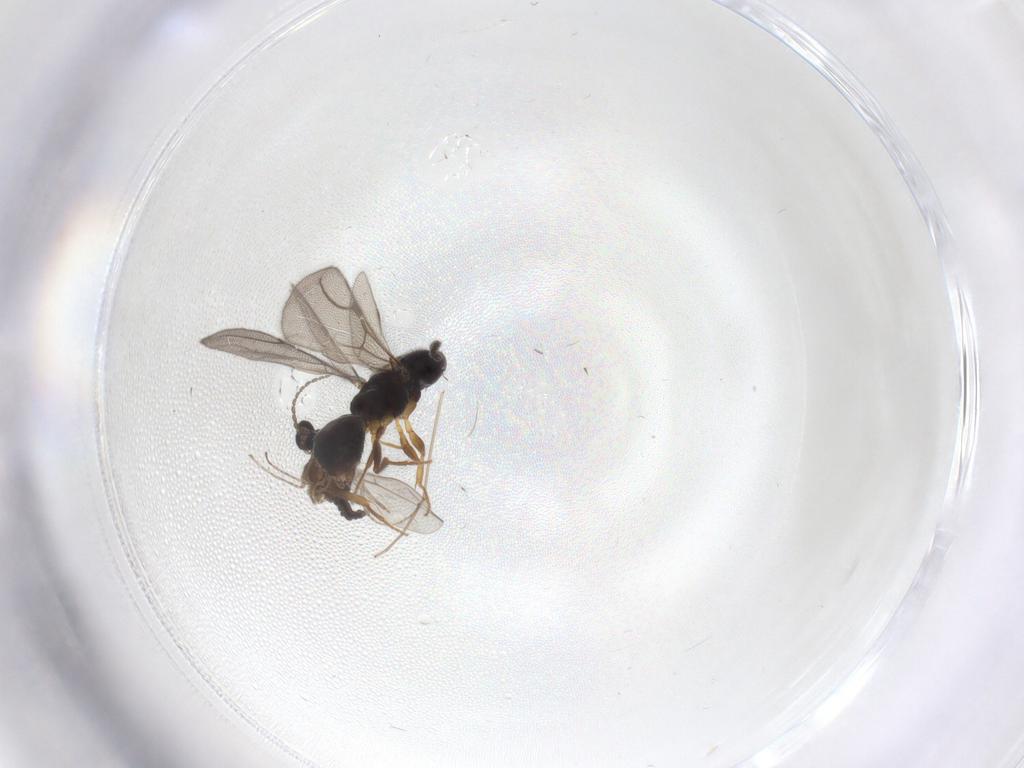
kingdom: Animalia
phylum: Arthropoda
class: Insecta
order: Diptera
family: Cecidomyiidae
